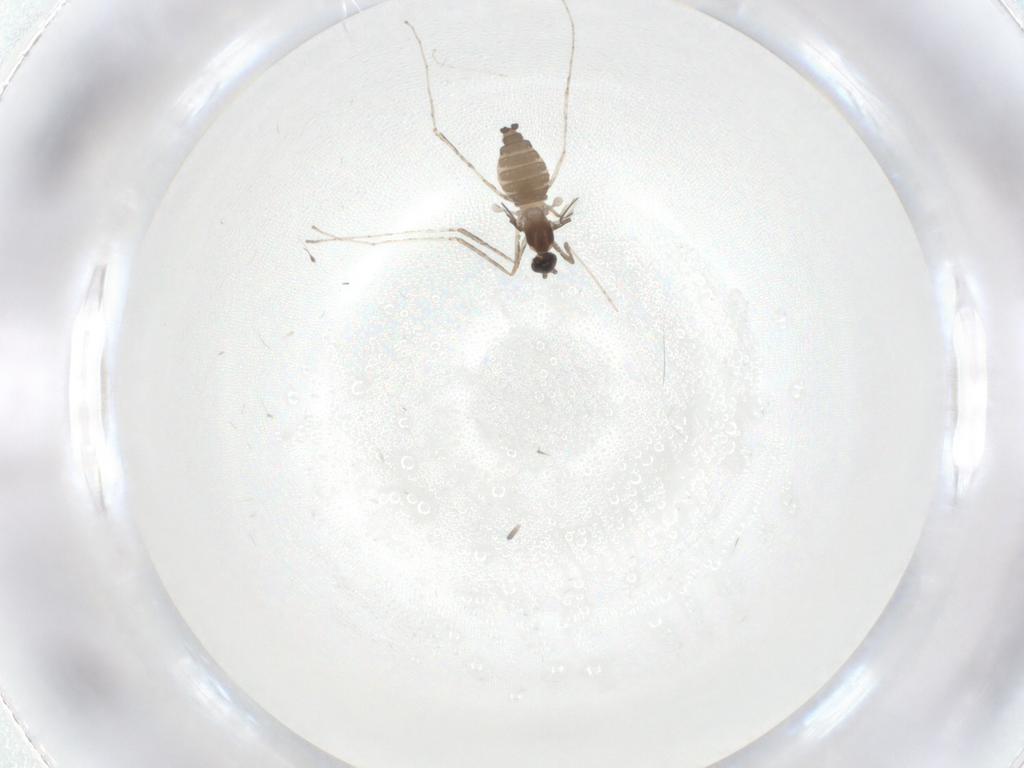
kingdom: Animalia
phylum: Arthropoda
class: Insecta
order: Diptera
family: Cecidomyiidae
